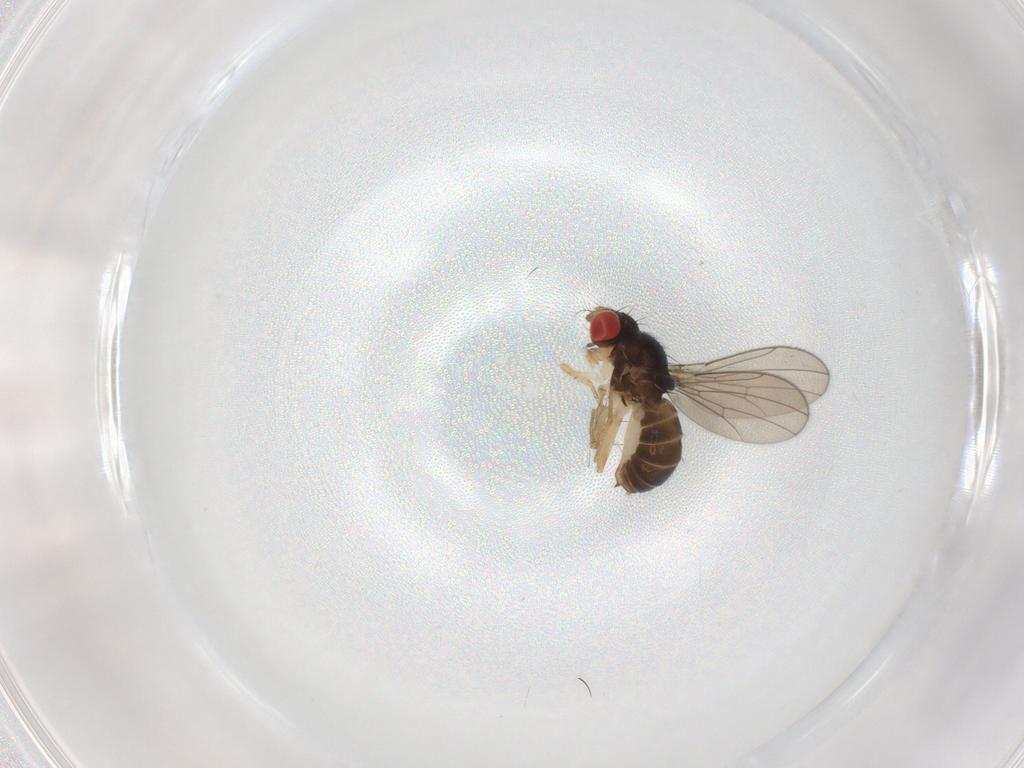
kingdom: Animalia
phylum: Arthropoda
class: Insecta
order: Diptera
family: Drosophilidae
